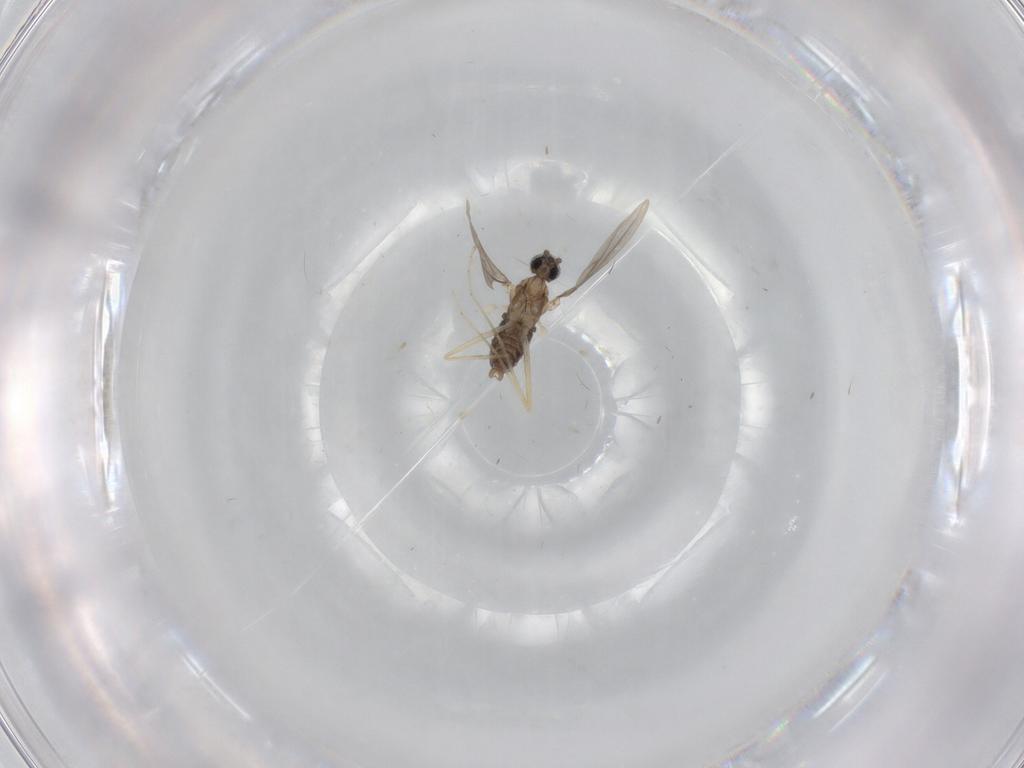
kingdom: Animalia
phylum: Arthropoda
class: Insecta
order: Diptera
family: Cecidomyiidae
